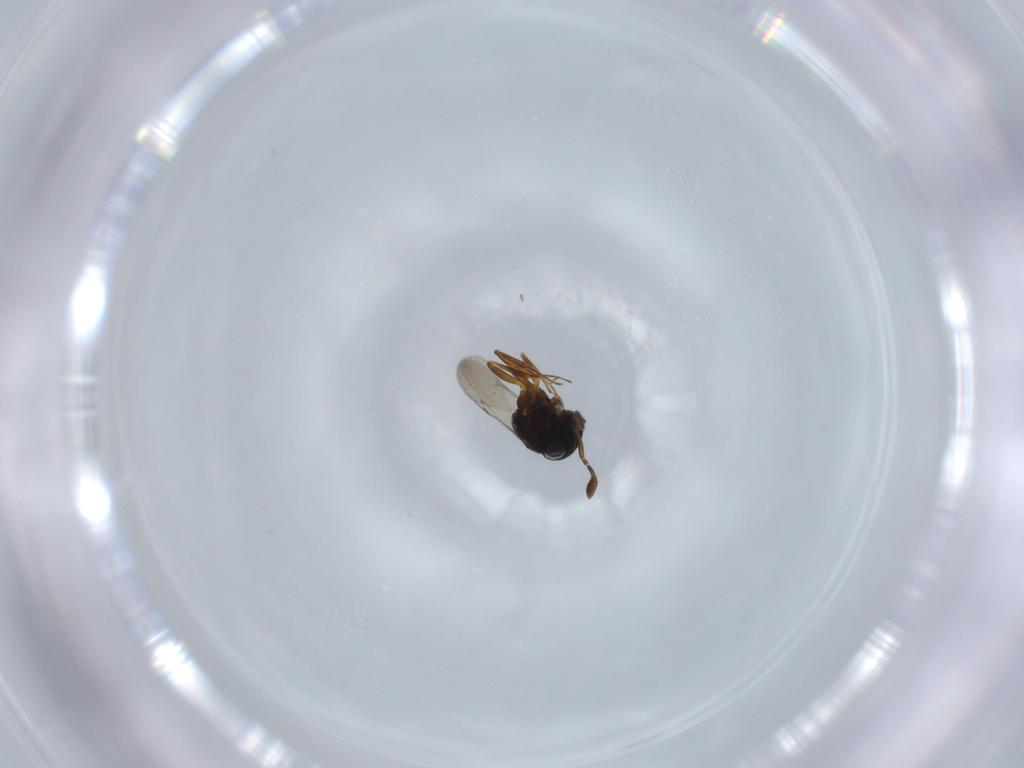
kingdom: Animalia
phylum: Arthropoda
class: Insecta
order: Coleoptera
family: Curculionidae
